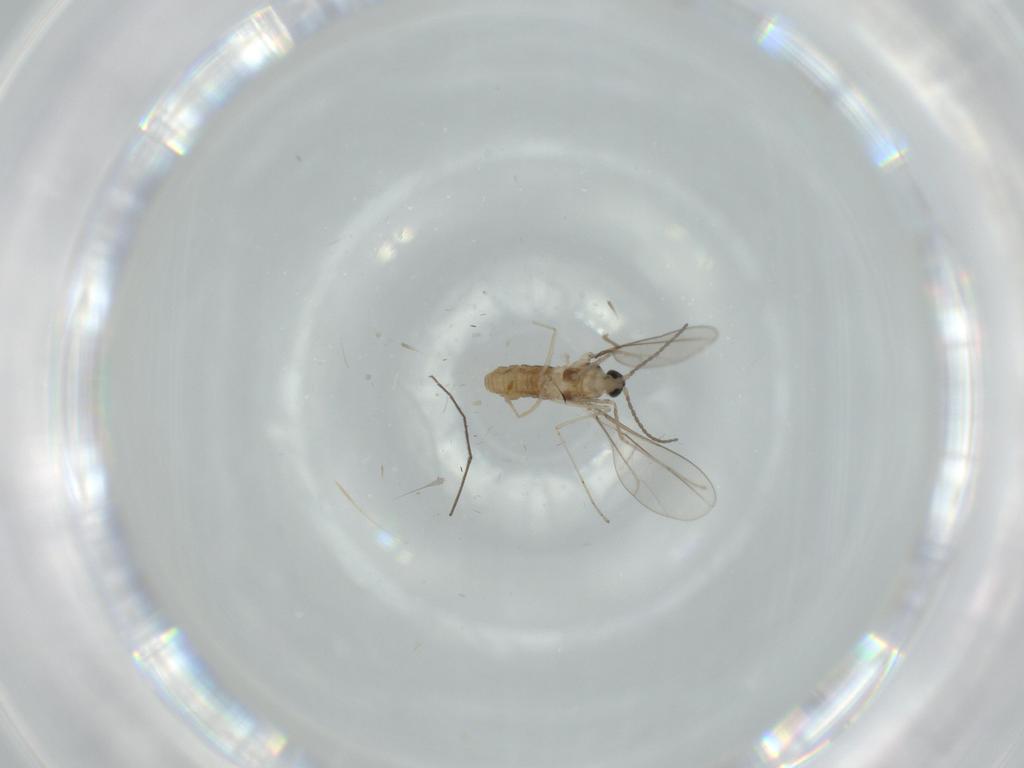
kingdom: Animalia
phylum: Arthropoda
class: Insecta
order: Diptera
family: Cecidomyiidae
